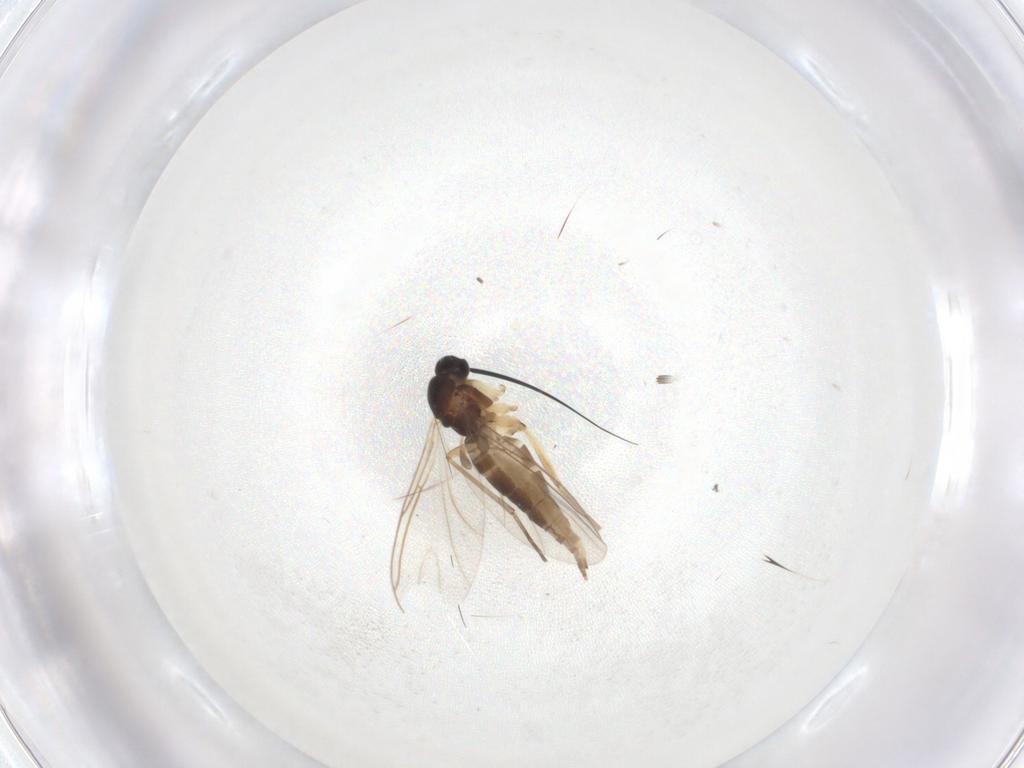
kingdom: Animalia
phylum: Arthropoda
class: Insecta
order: Diptera
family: Sciaridae
